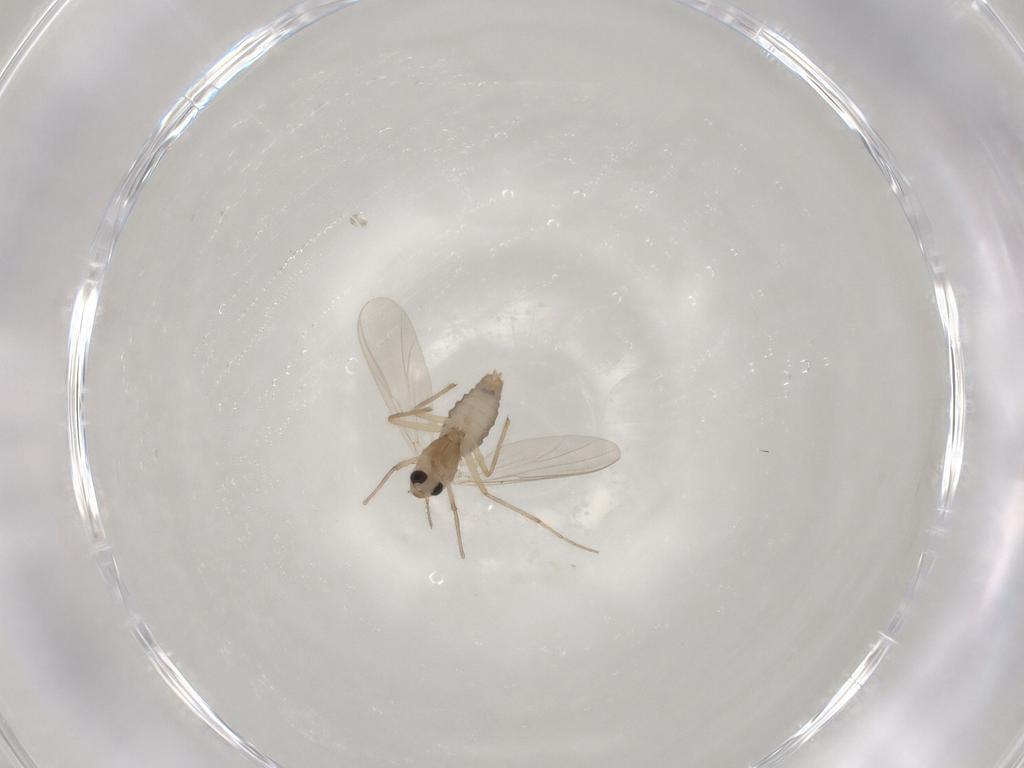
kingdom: Animalia
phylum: Arthropoda
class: Insecta
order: Diptera
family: Chironomidae
